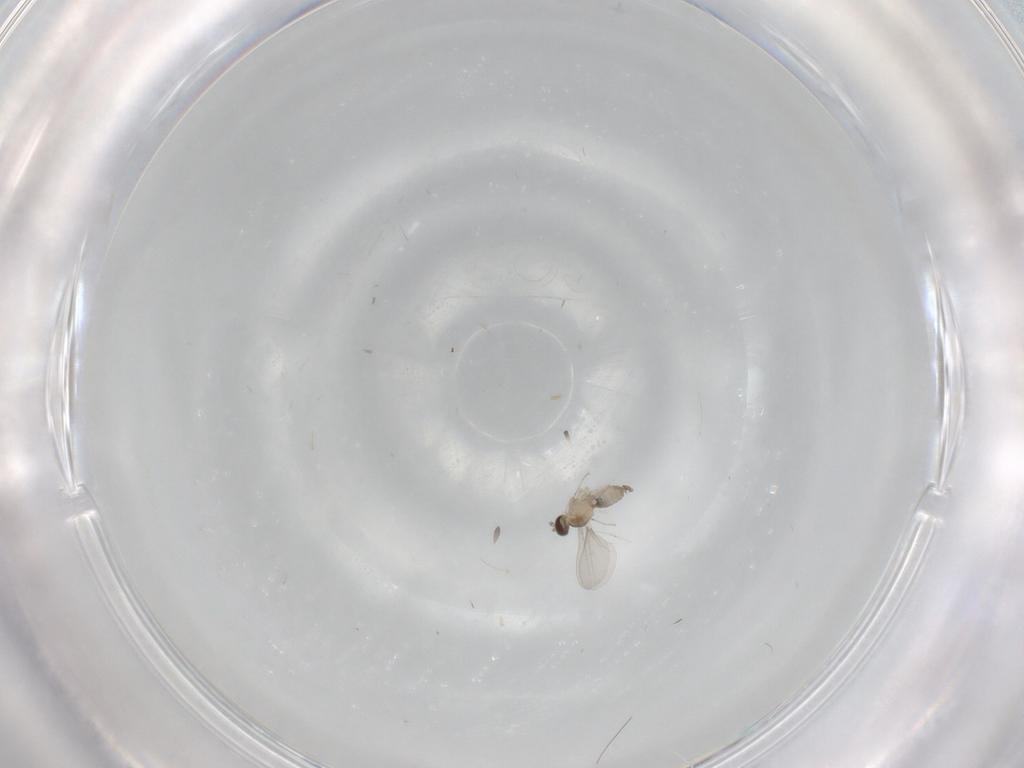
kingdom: Animalia
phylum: Arthropoda
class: Insecta
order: Diptera
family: Cecidomyiidae
